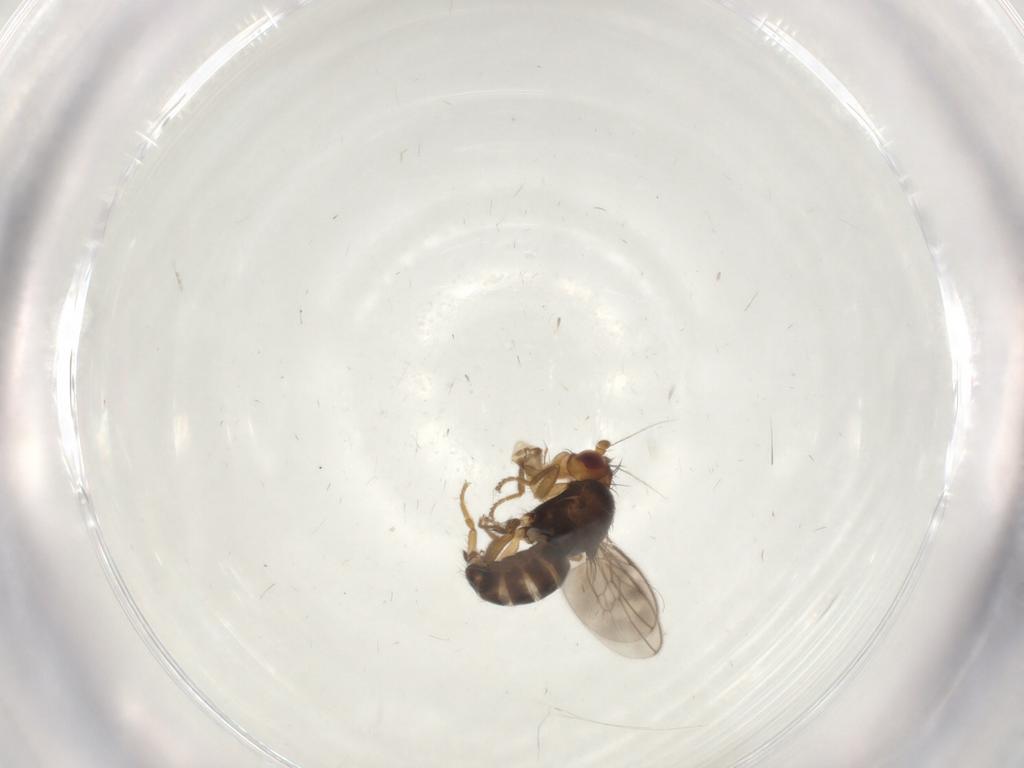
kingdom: Animalia
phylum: Arthropoda
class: Insecta
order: Diptera
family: Sphaeroceridae
